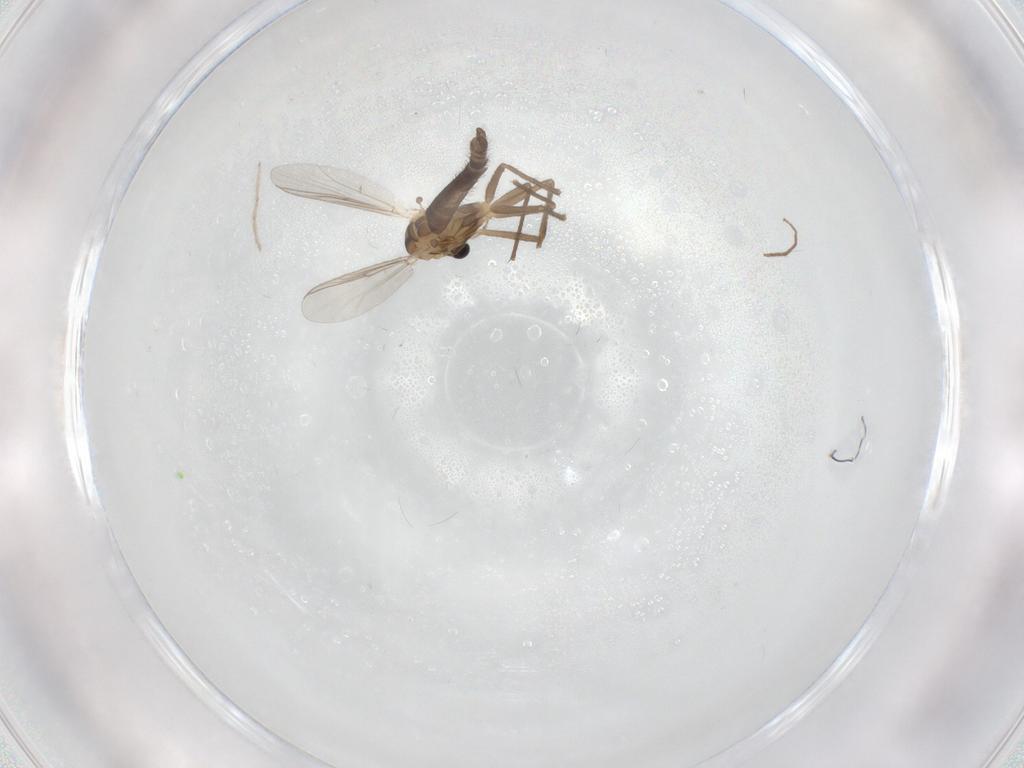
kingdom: Animalia
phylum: Arthropoda
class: Insecta
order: Diptera
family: Chironomidae
